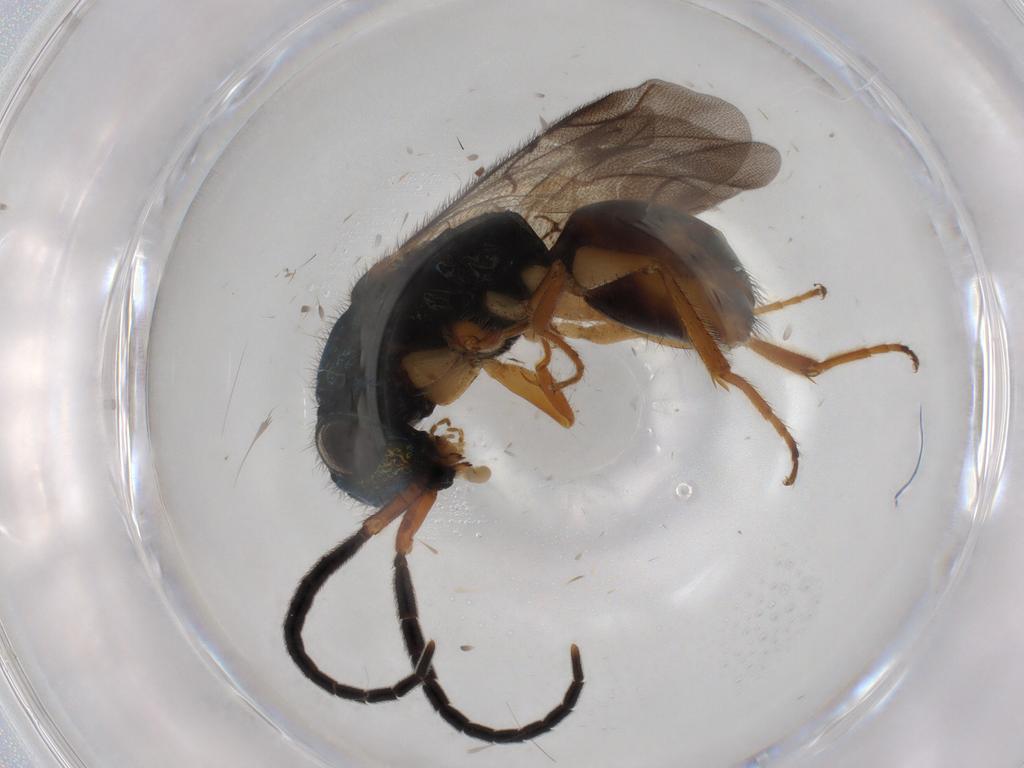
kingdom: Animalia
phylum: Arthropoda
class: Insecta
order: Hymenoptera
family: Chrysididae
